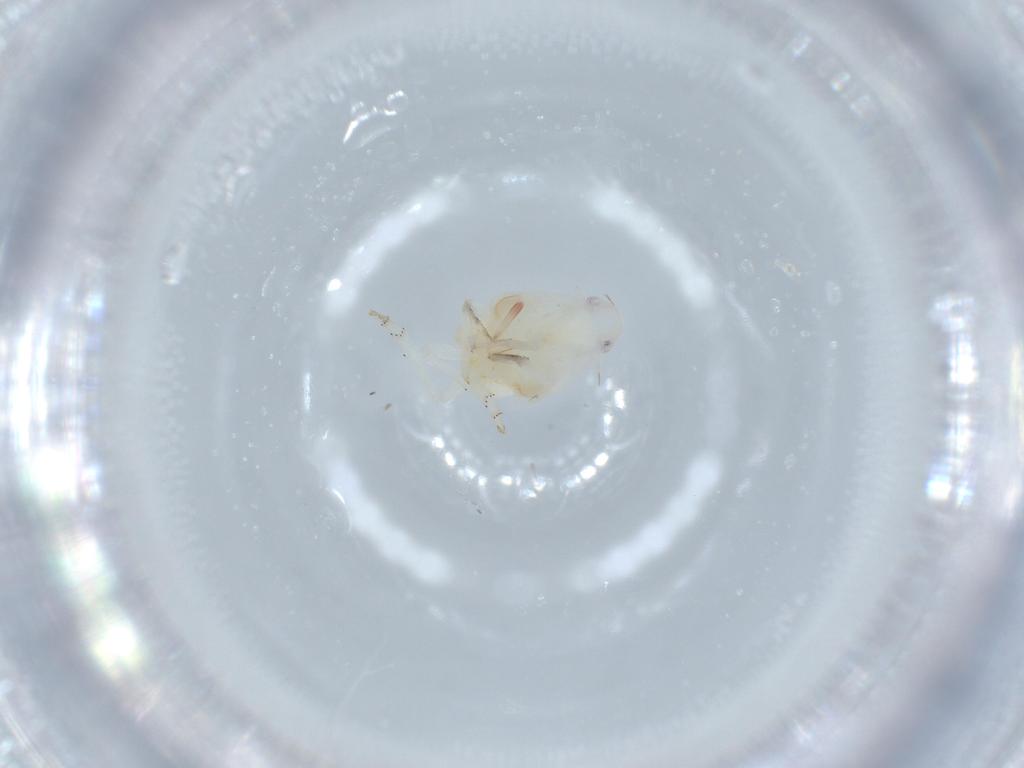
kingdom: Animalia
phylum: Arthropoda
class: Insecta
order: Hemiptera
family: Flatidae
